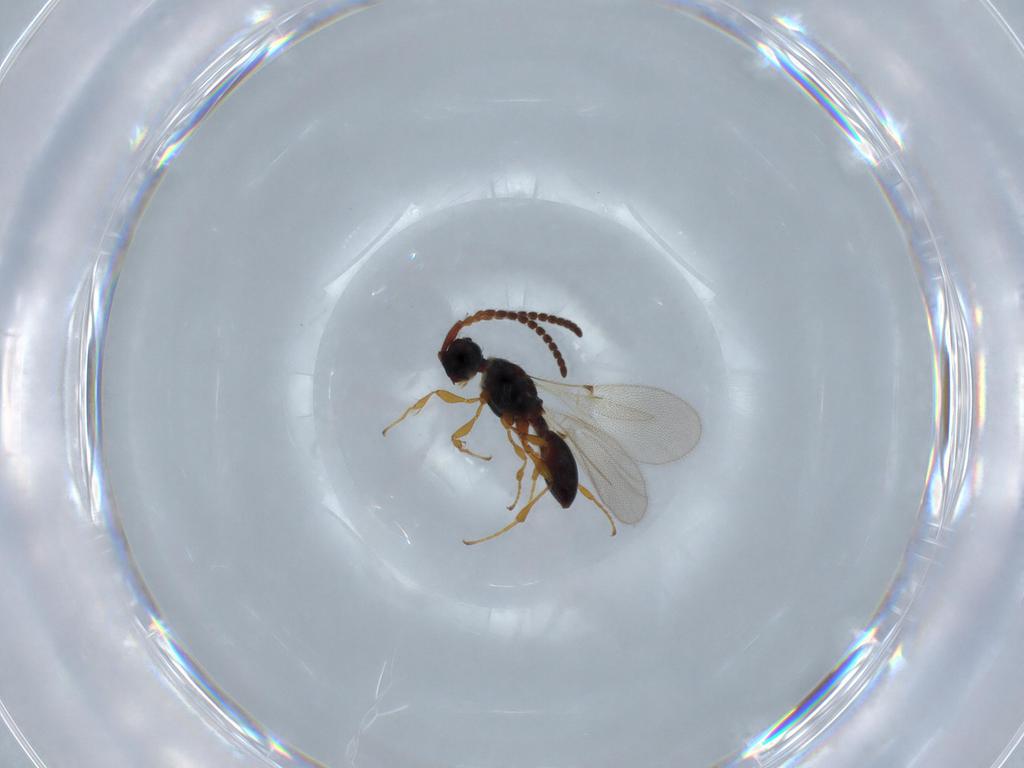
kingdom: Animalia
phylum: Arthropoda
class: Insecta
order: Hymenoptera
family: Diapriidae
